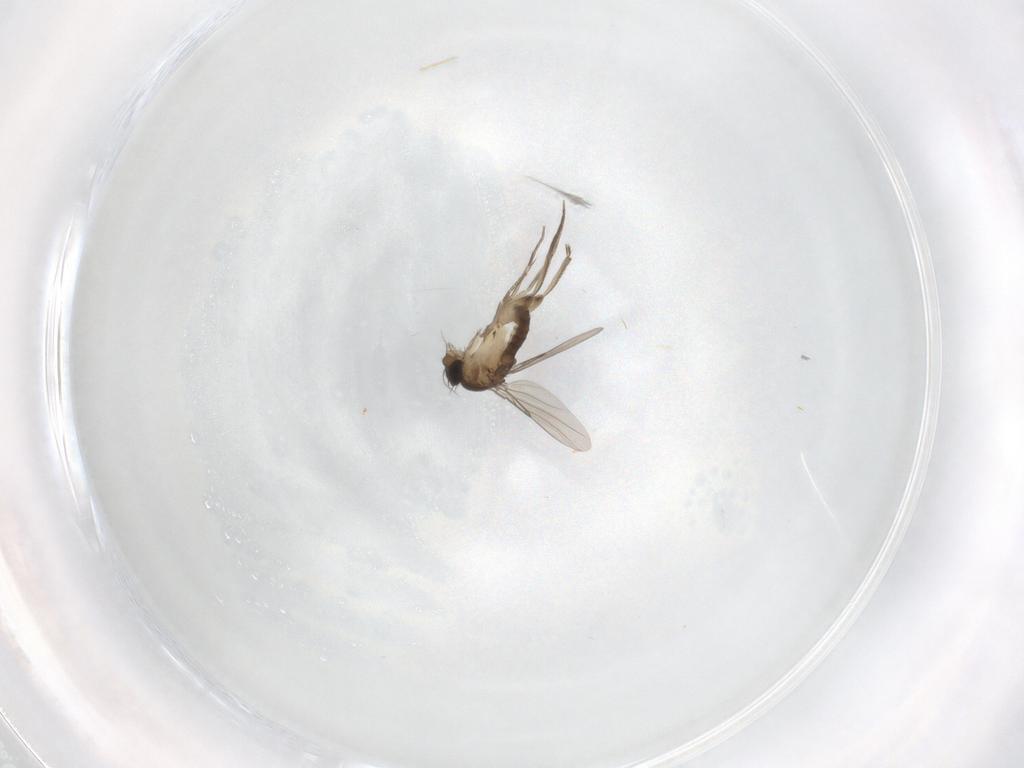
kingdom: Animalia
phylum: Arthropoda
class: Insecta
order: Diptera
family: Phoridae
